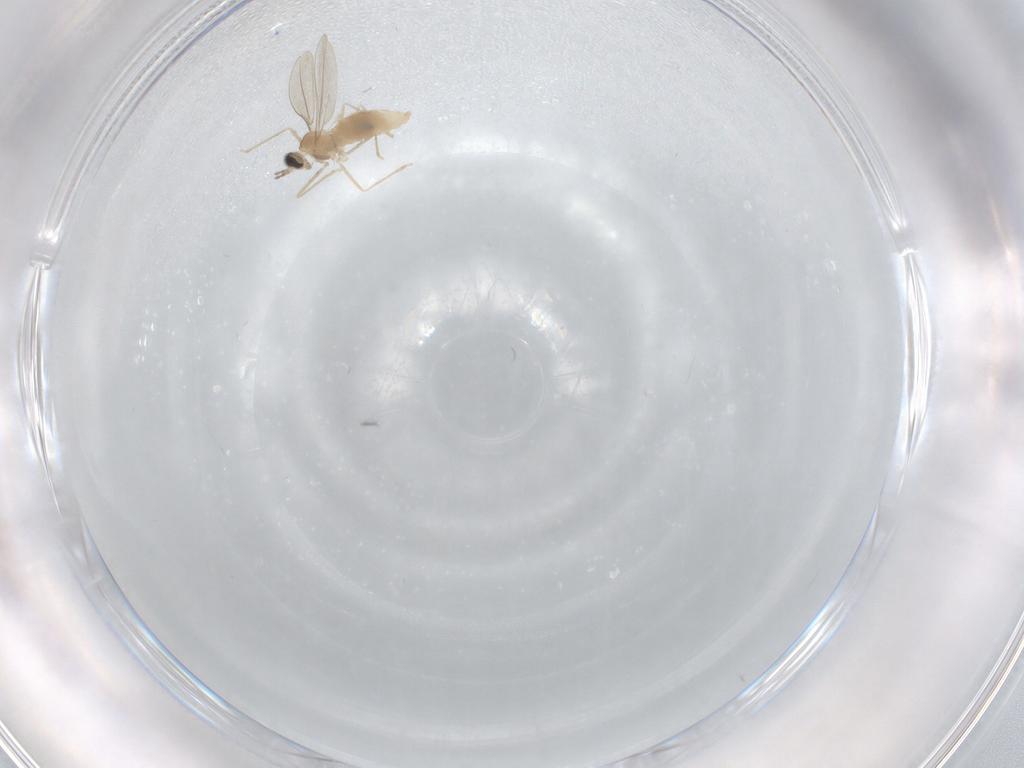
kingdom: Animalia
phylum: Arthropoda
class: Insecta
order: Diptera
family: Cecidomyiidae
